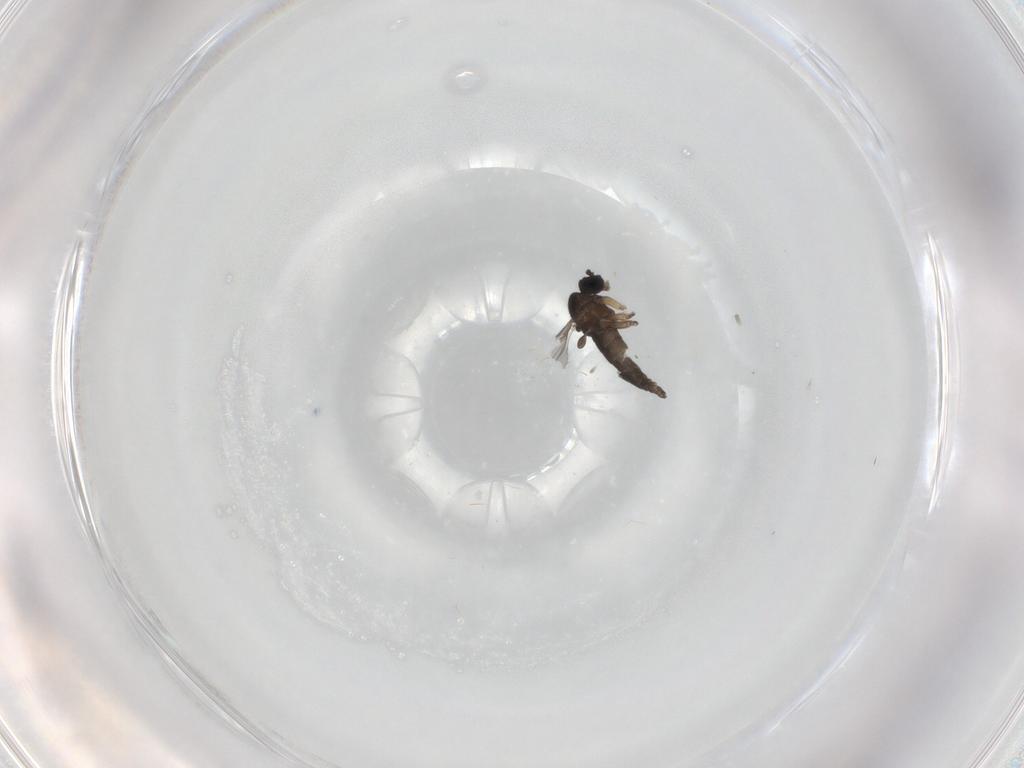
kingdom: Animalia
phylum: Arthropoda
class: Insecta
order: Diptera
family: Sciaridae
